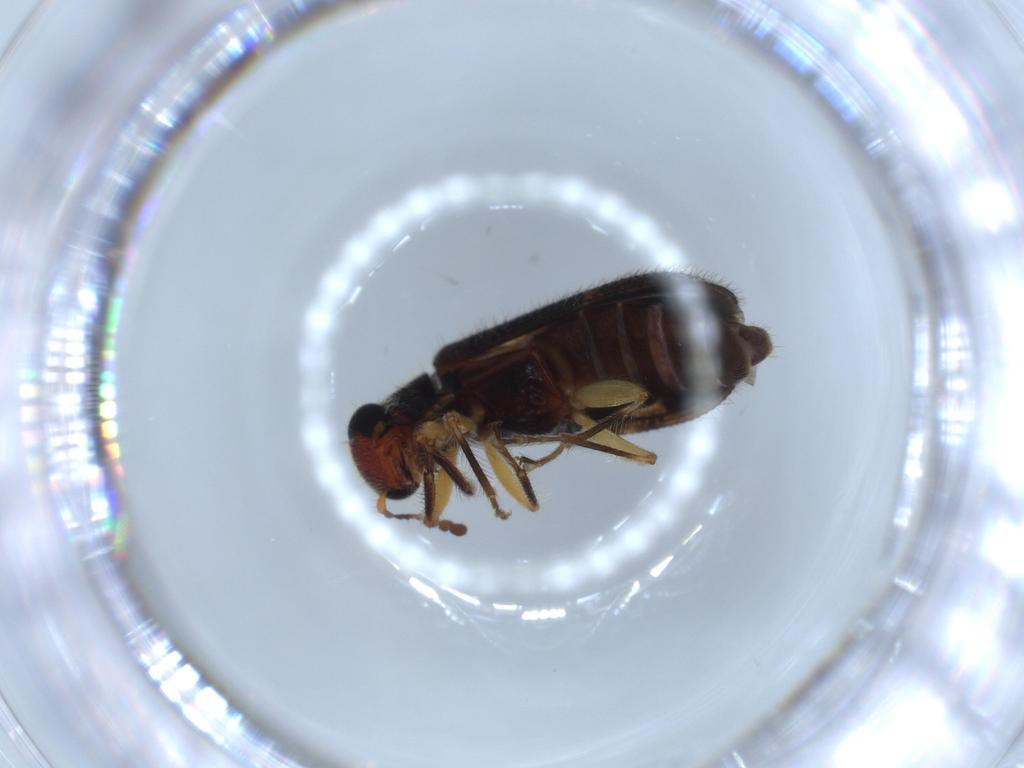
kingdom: Animalia
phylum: Arthropoda
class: Insecta
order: Coleoptera
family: Cleridae
